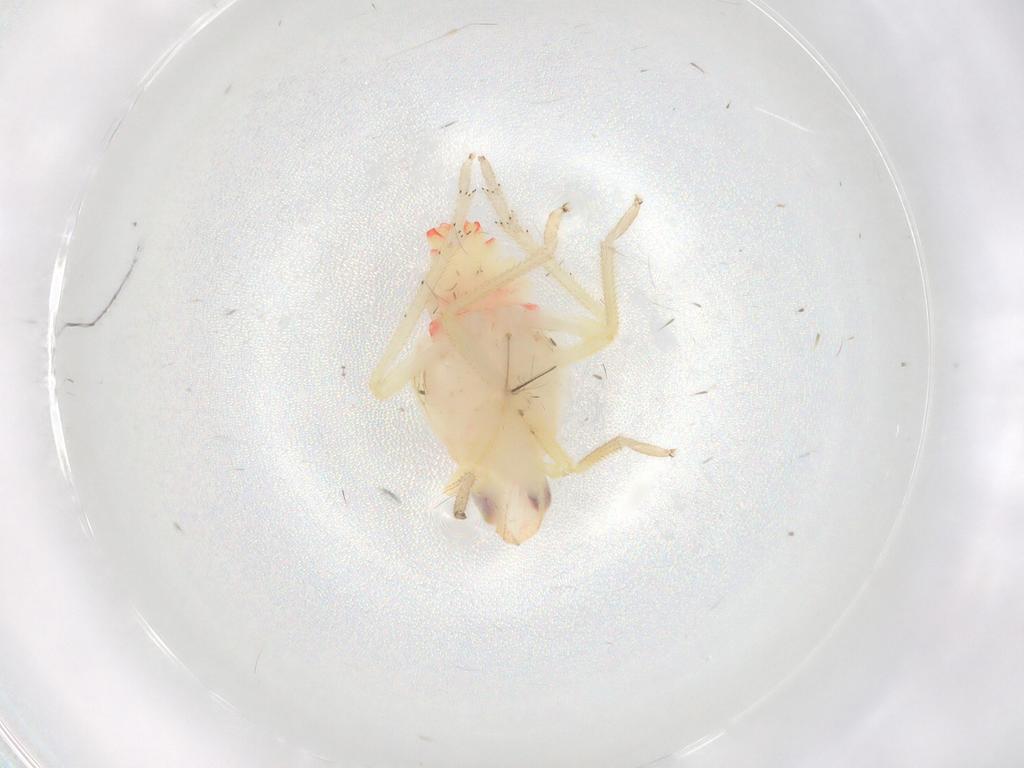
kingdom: Animalia
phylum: Arthropoda
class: Insecta
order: Hemiptera
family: Tropiduchidae
